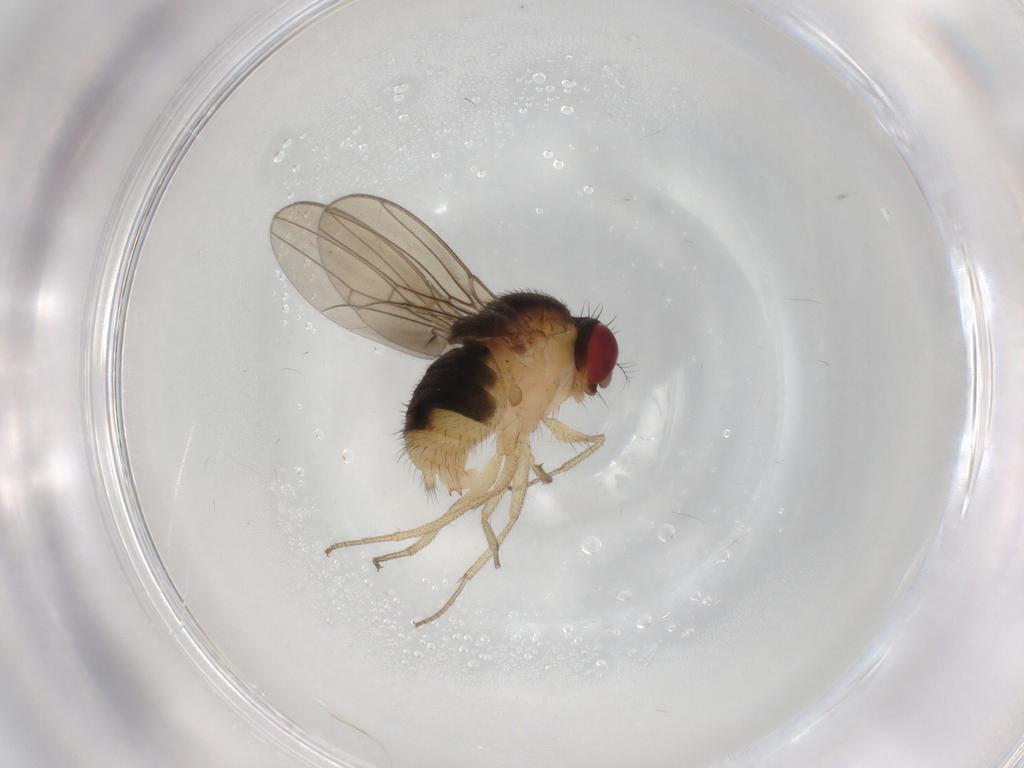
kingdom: Animalia
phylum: Arthropoda
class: Insecta
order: Diptera
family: Drosophilidae
